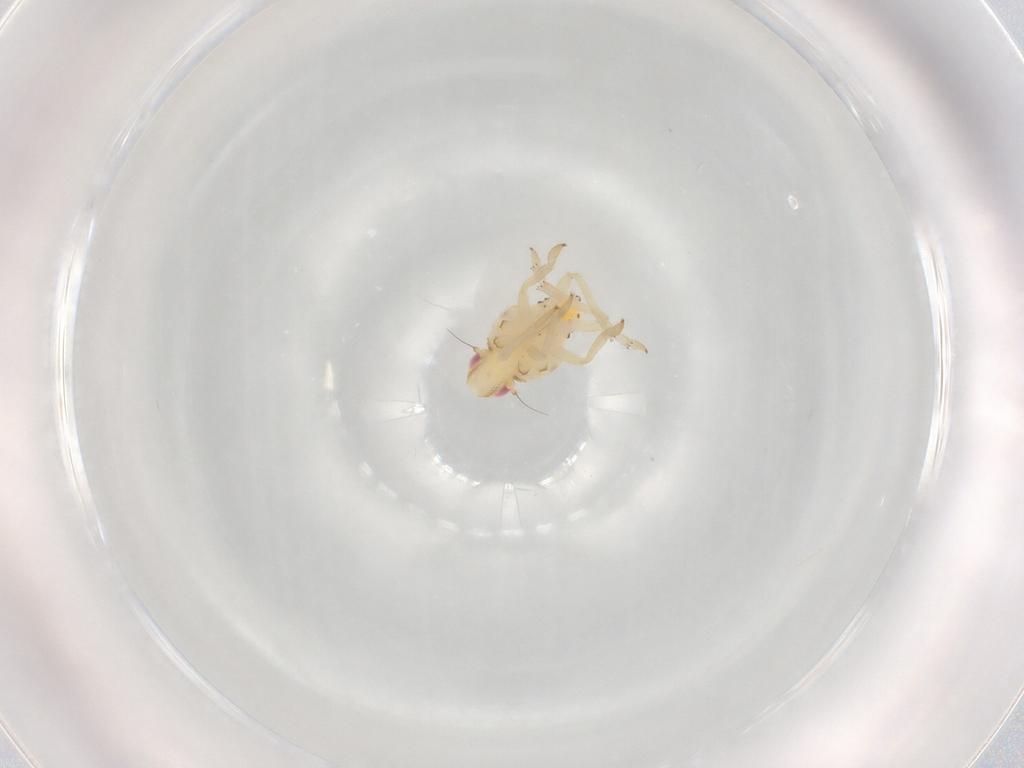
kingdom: Animalia
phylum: Arthropoda
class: Insecta
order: Hemiptera
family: Tropiduchidae
